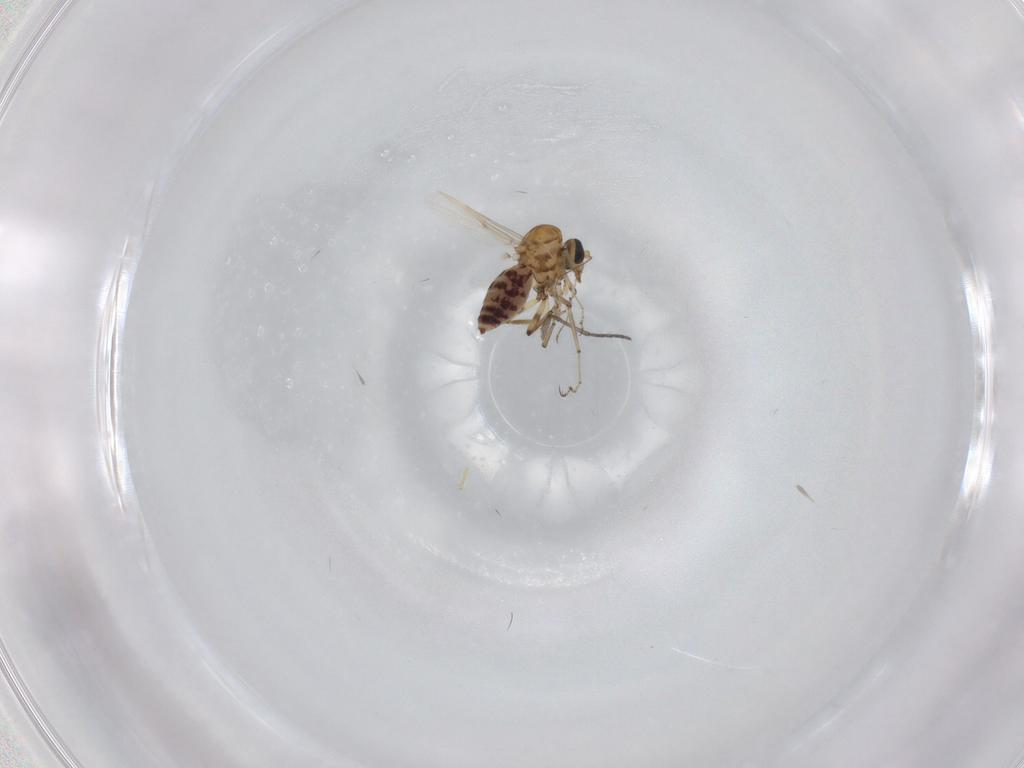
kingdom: Animalia
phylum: Arthropoda
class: Insecta
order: Diptera
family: Ceratopogonidae
